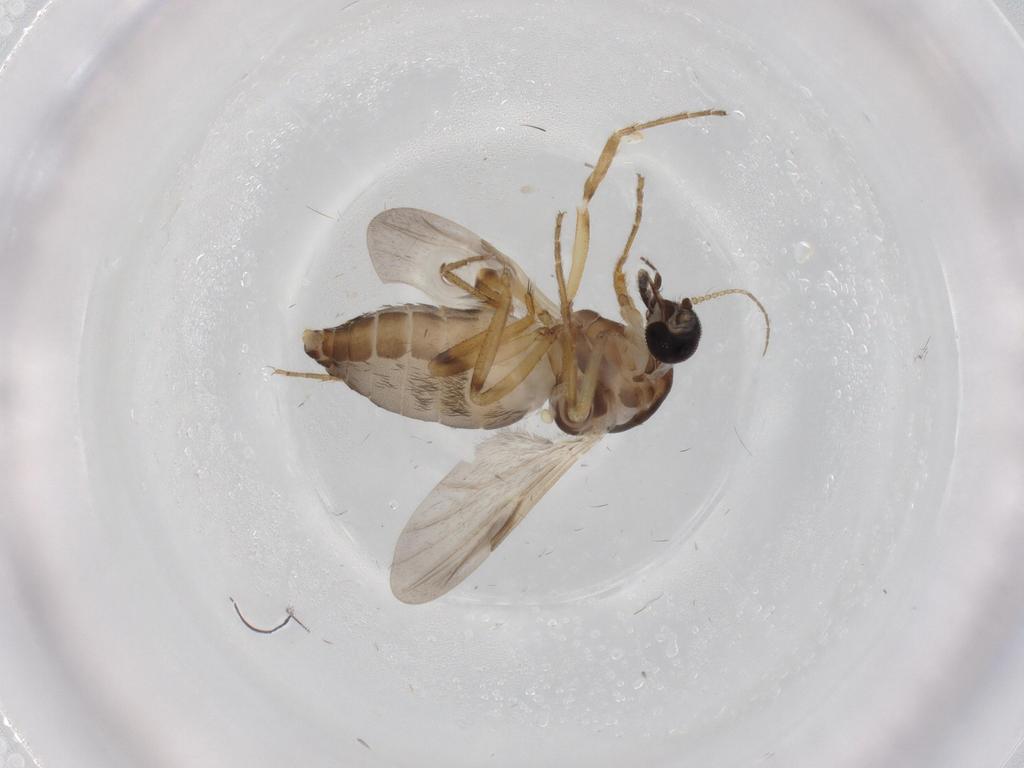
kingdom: Animalia
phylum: Arthropoda
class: Insecta
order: Diptera
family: Ceratopogonidae
